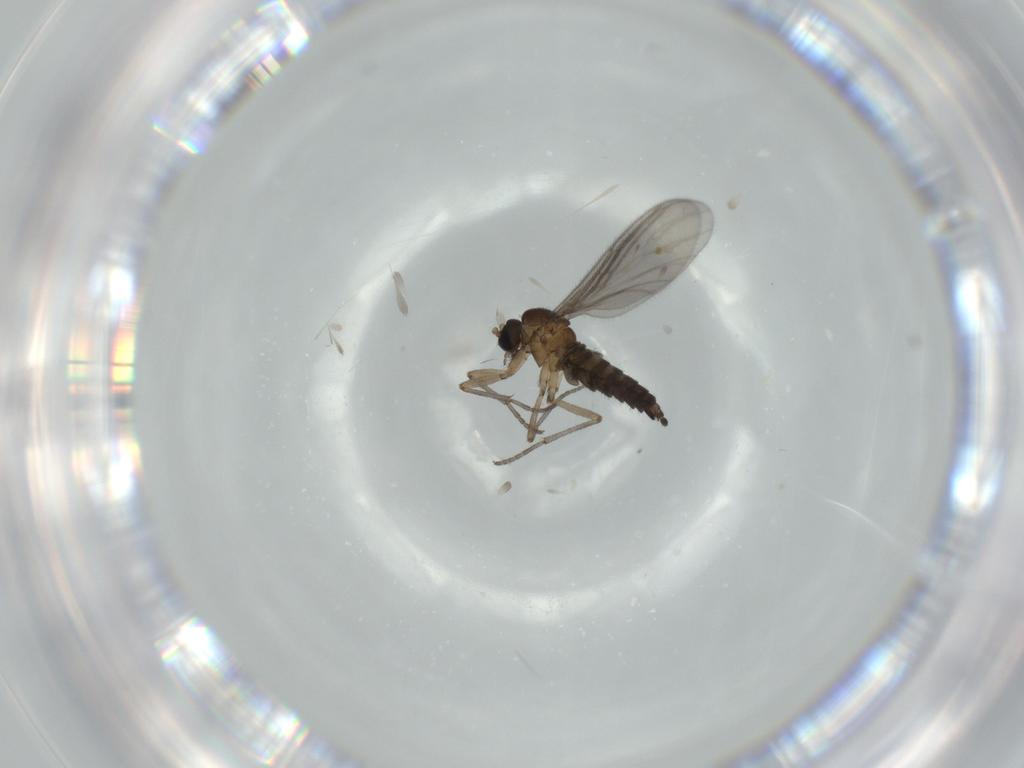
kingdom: Animalia
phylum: Arthropoda
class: Insecta
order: Diptera
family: Sciaridae
